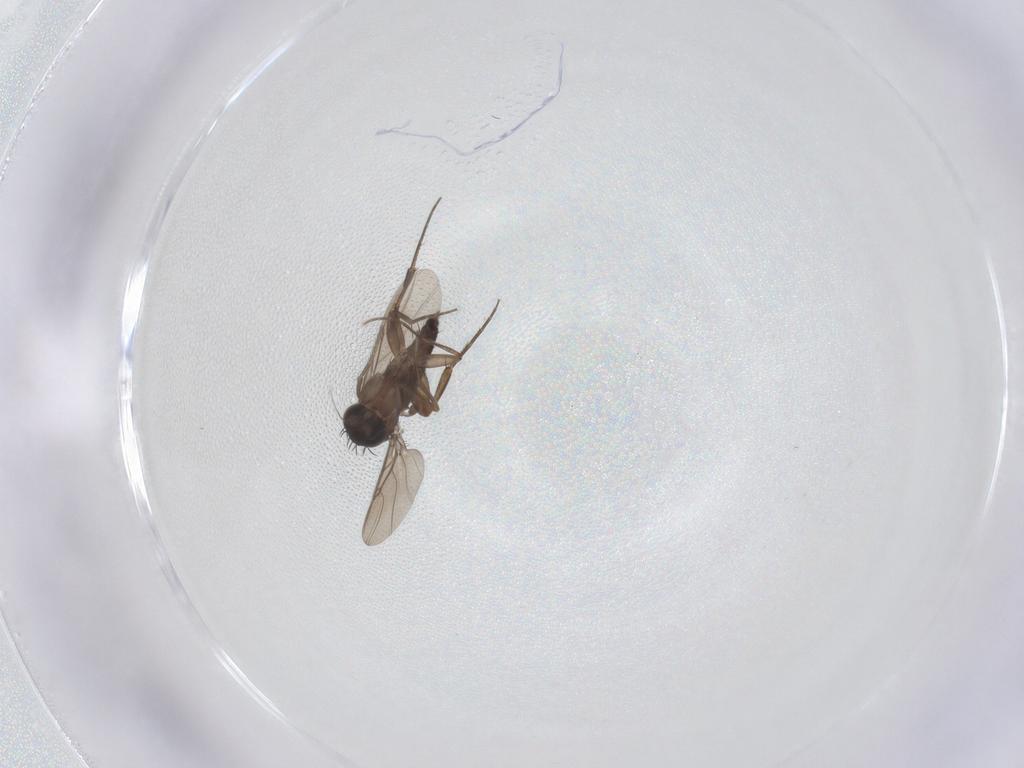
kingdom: Animalia
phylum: Arthropoda
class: Insecta
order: Diptera
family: Phoridae
